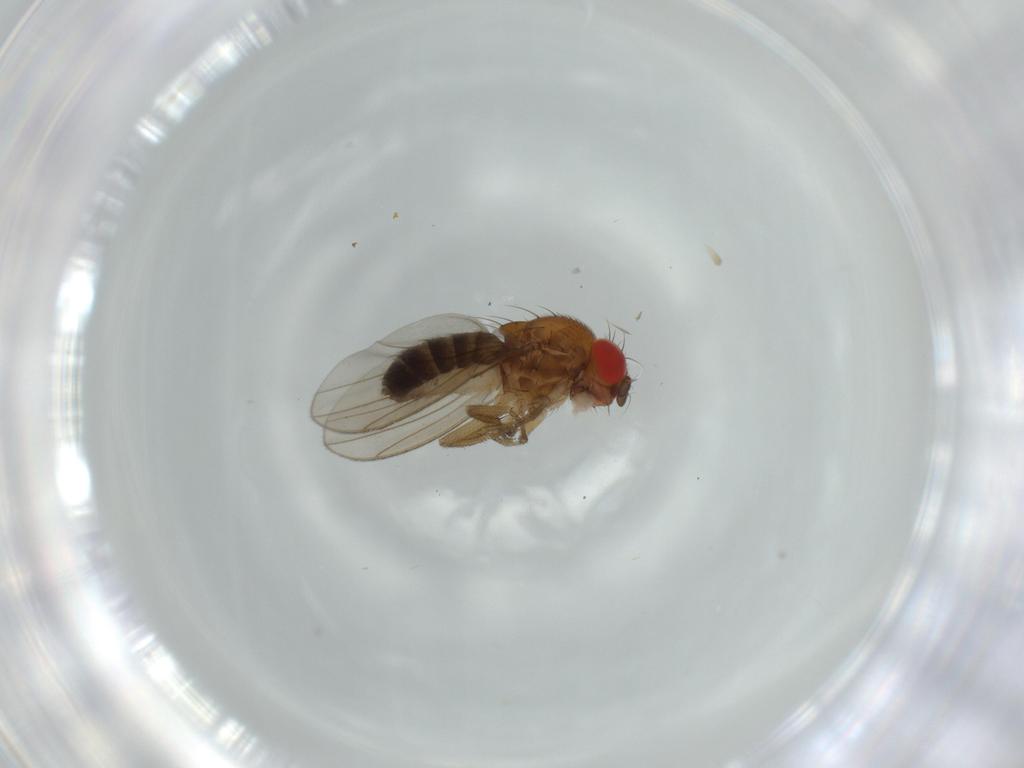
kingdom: Animalia
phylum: Arthropoda
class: Insecta
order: Diptera
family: Drosophilidae
